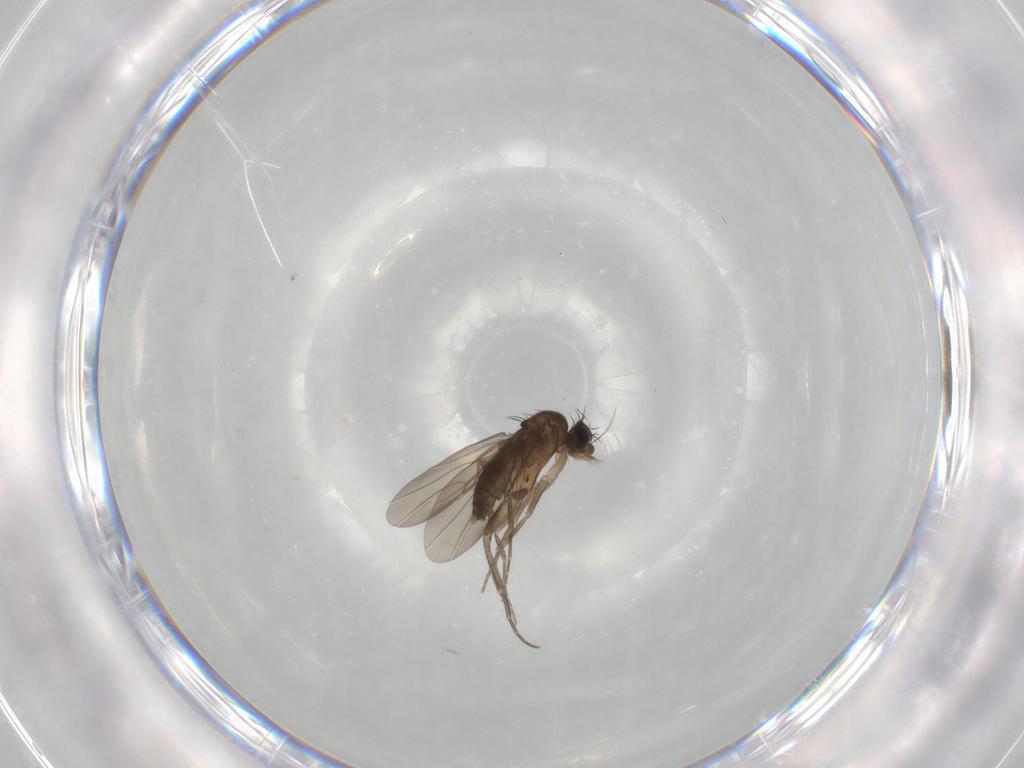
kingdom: Animalia
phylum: Arthropoda
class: Insecta
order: Diptera
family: Phoridae
